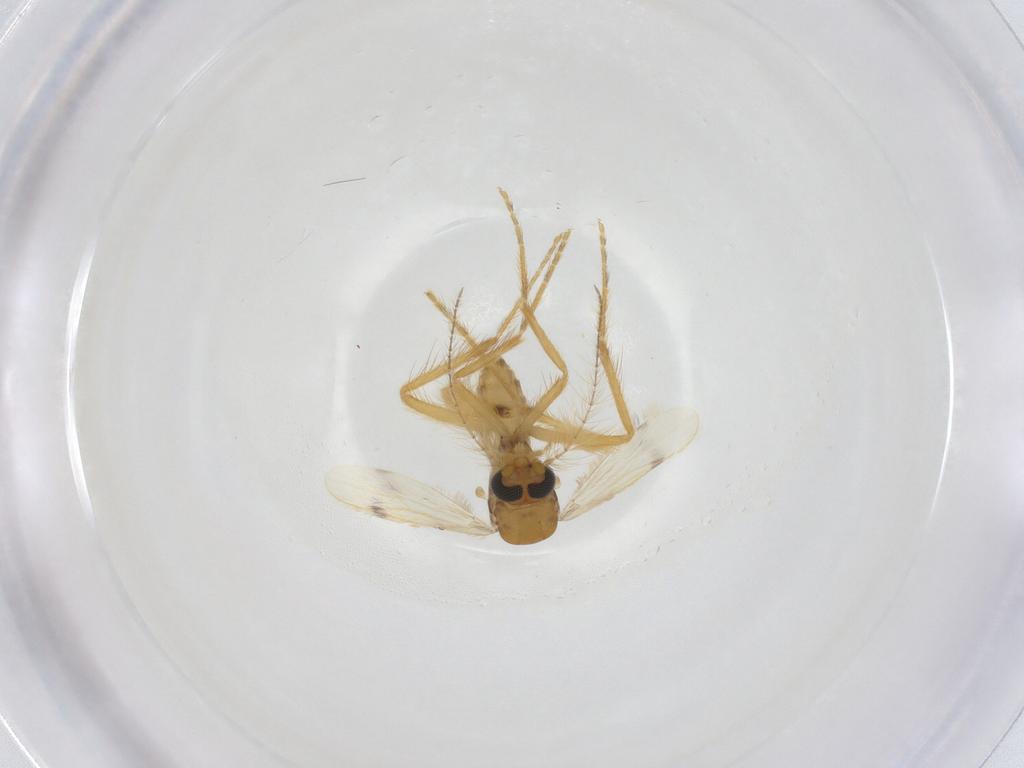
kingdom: Animalia
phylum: Arthropoda
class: Insecta
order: Diptera
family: Corethrellidae
